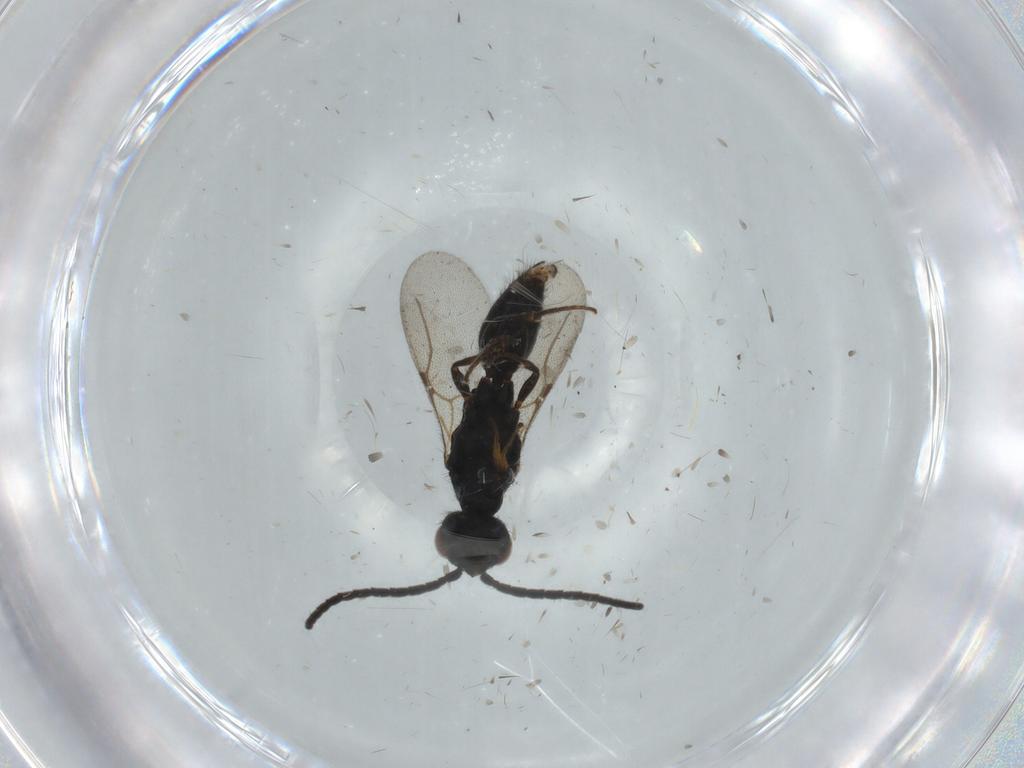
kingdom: Animalia
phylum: Arthropoda
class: Insecta
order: Hymenoptera
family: Bethylidae
